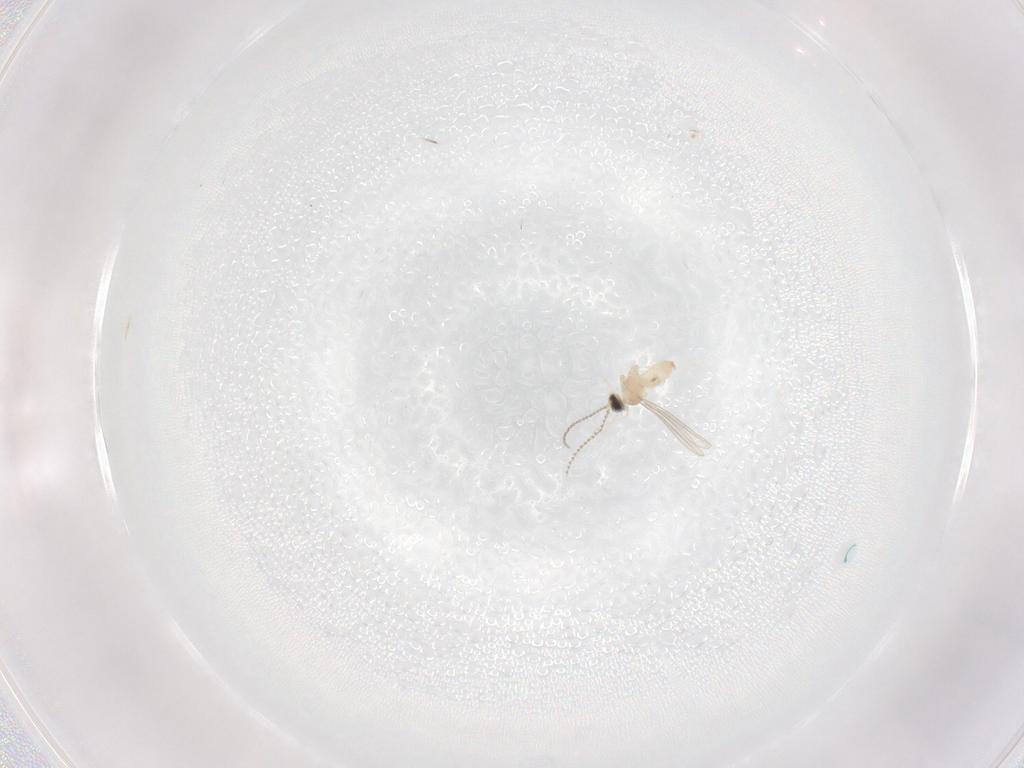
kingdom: Animalia
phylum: Arthropoda
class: Insecta
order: Diptera
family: Cecidomyiidae
